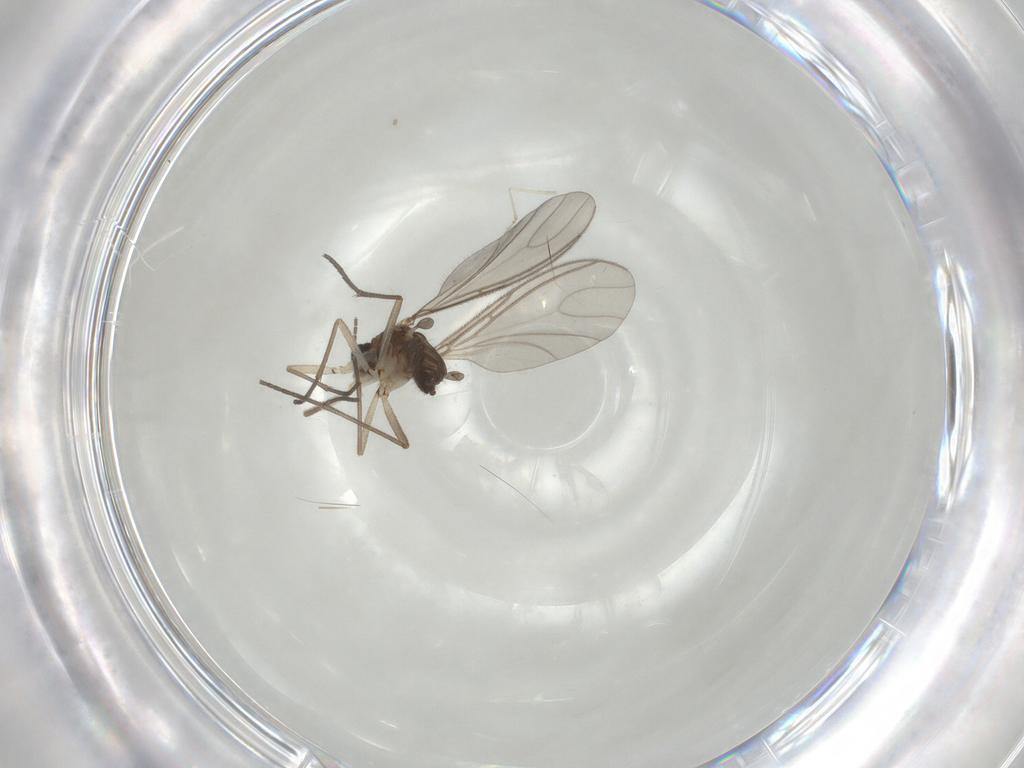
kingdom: Animalia
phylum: Arthropoda
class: Insecta
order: Diptera
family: Sciaridae
